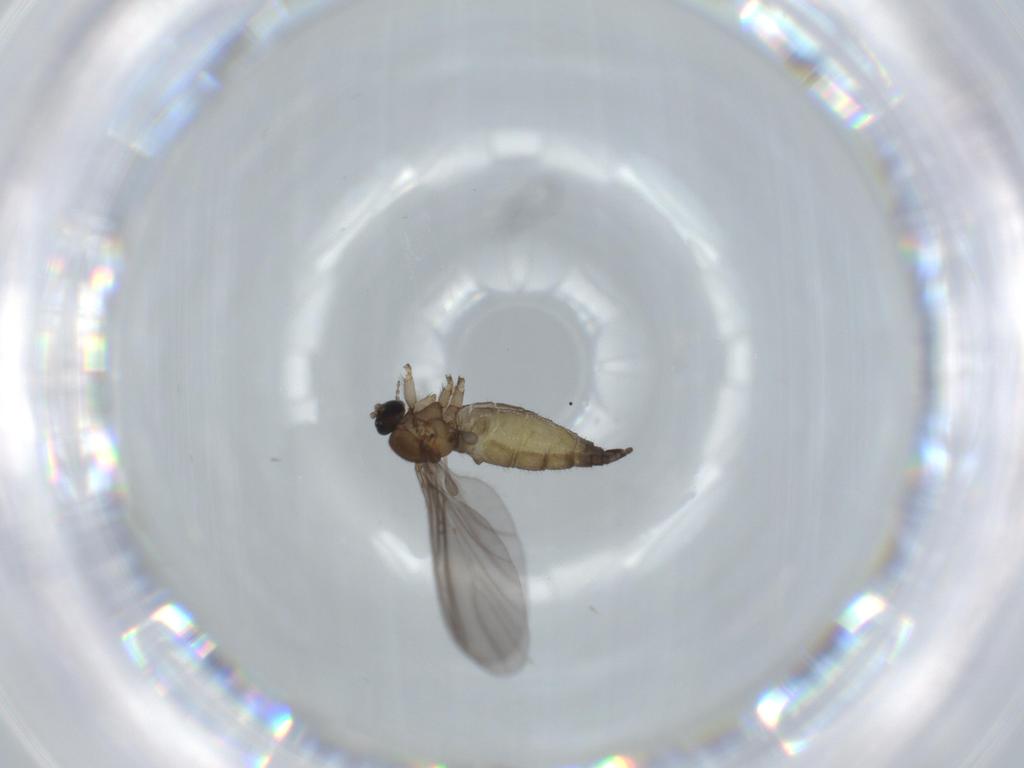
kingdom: Animalia
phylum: Arthropoda
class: Insecta
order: Diptera
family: Sciaridae
